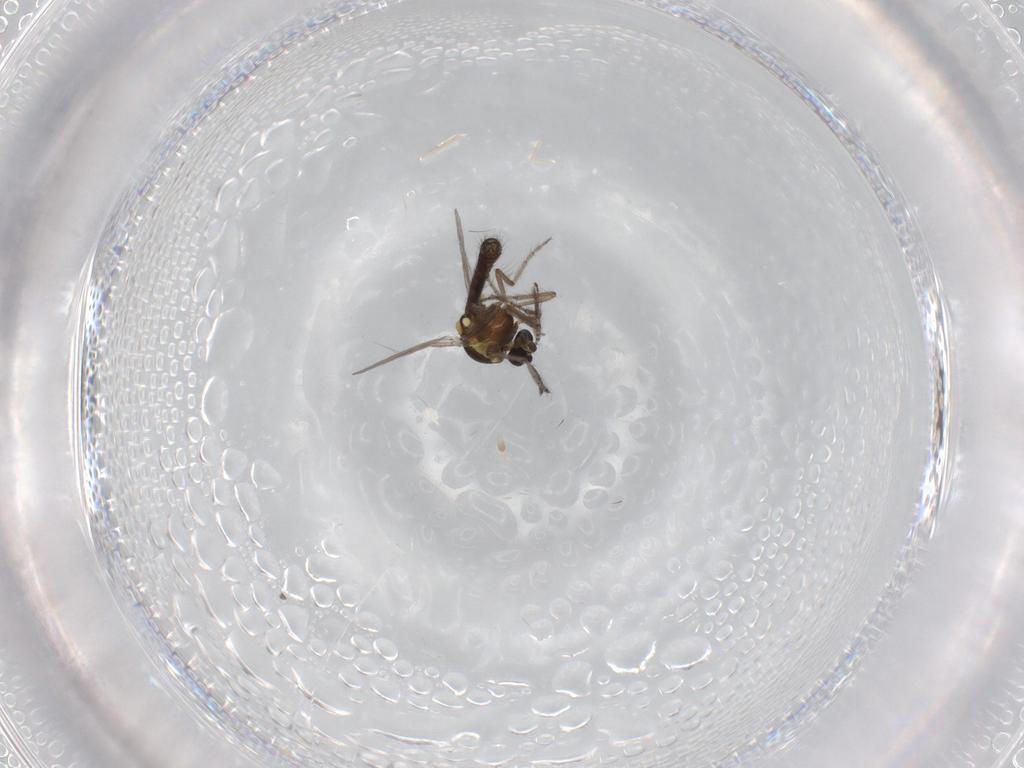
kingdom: Animalia
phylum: Arthropoda
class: Insecta
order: Diptera
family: Ceratopogonidae
